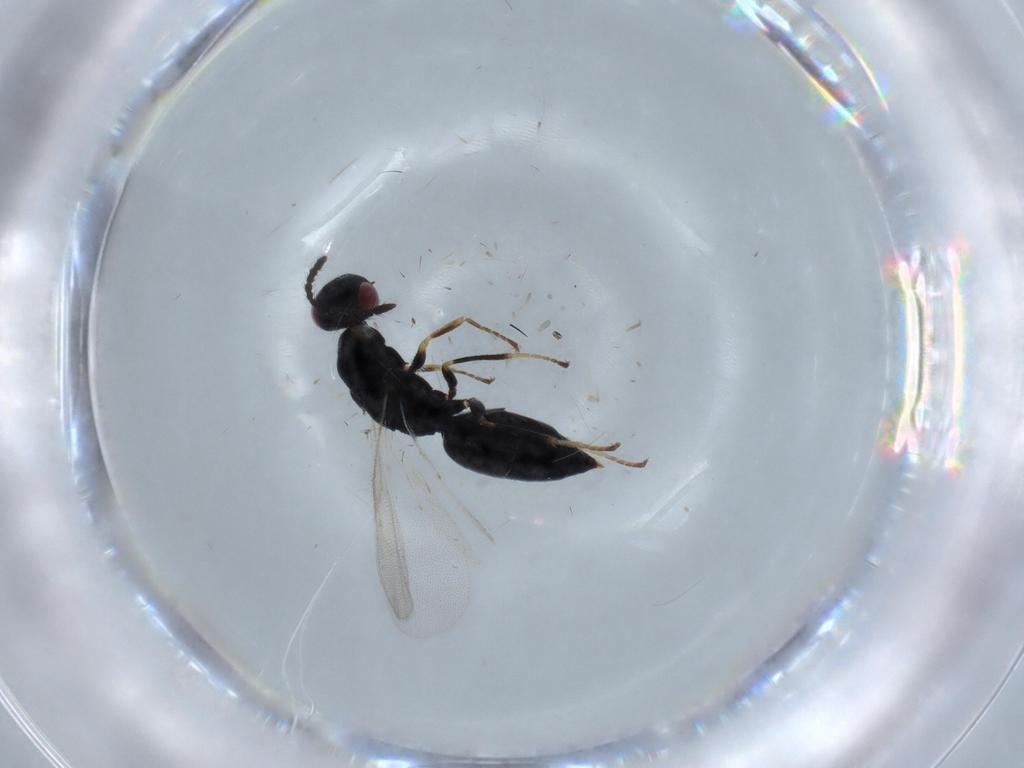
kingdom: Animalia
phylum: Arthropoda
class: Insecta
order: Hymenoptera
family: Eurytomidae
